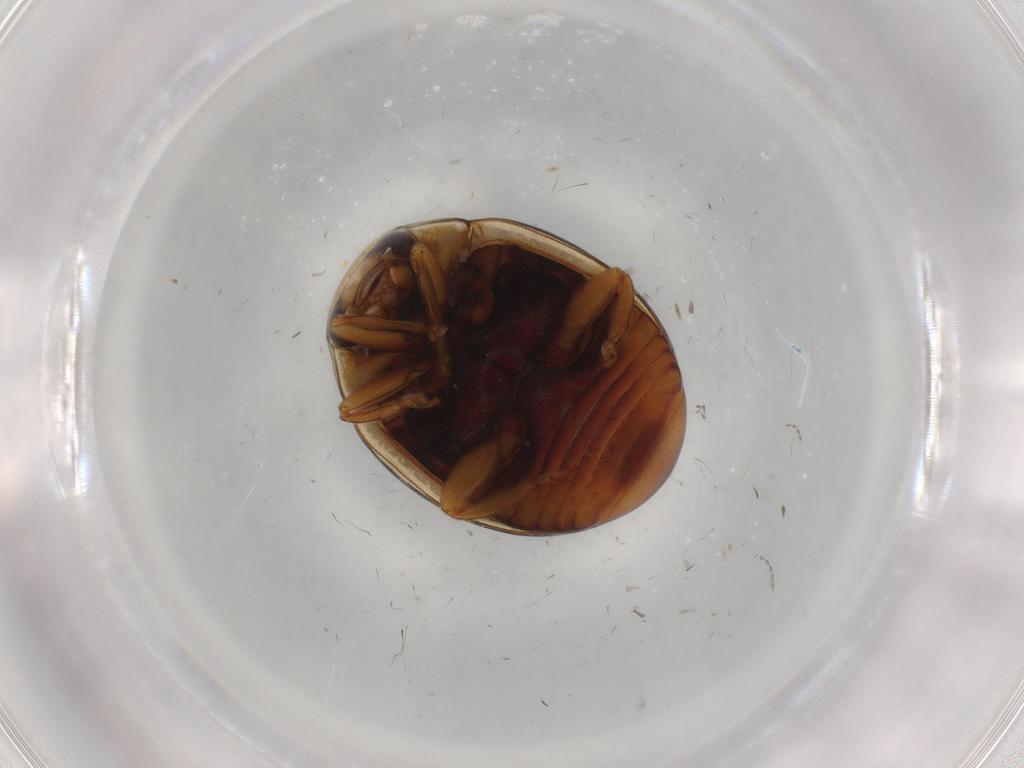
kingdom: Animalia
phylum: Arthropoda
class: Insecta
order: Coleoptera
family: Coccinellidae
